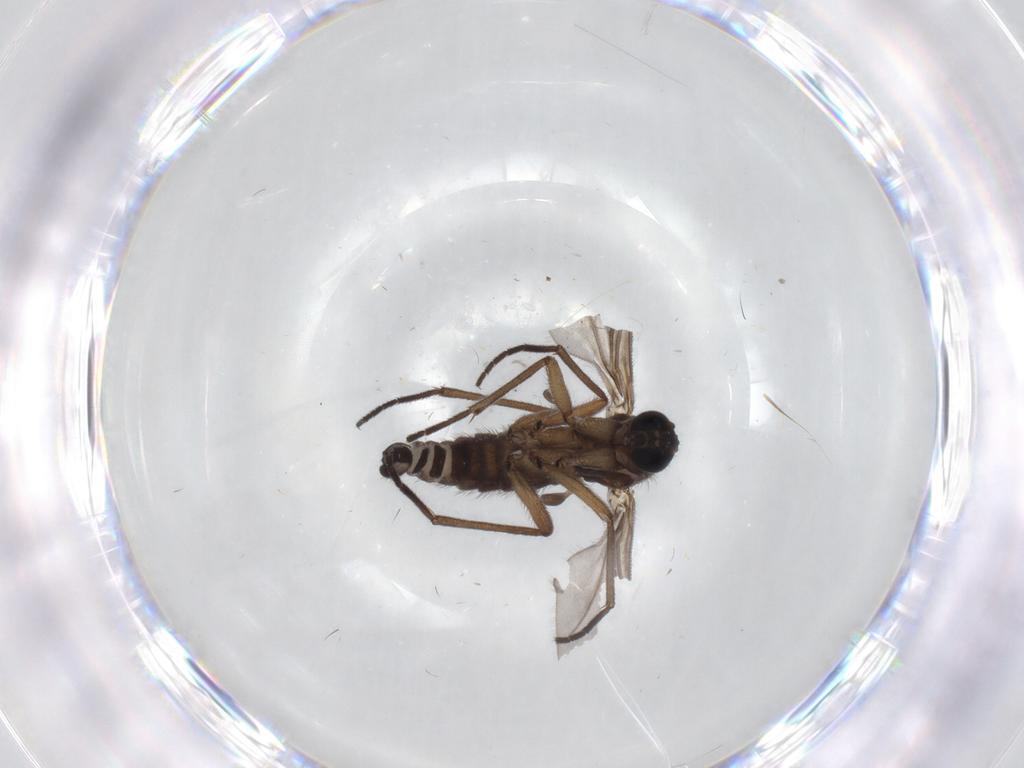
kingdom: Animalia
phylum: Arthropoda
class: Insecta
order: Diptera
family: Sciaridae
